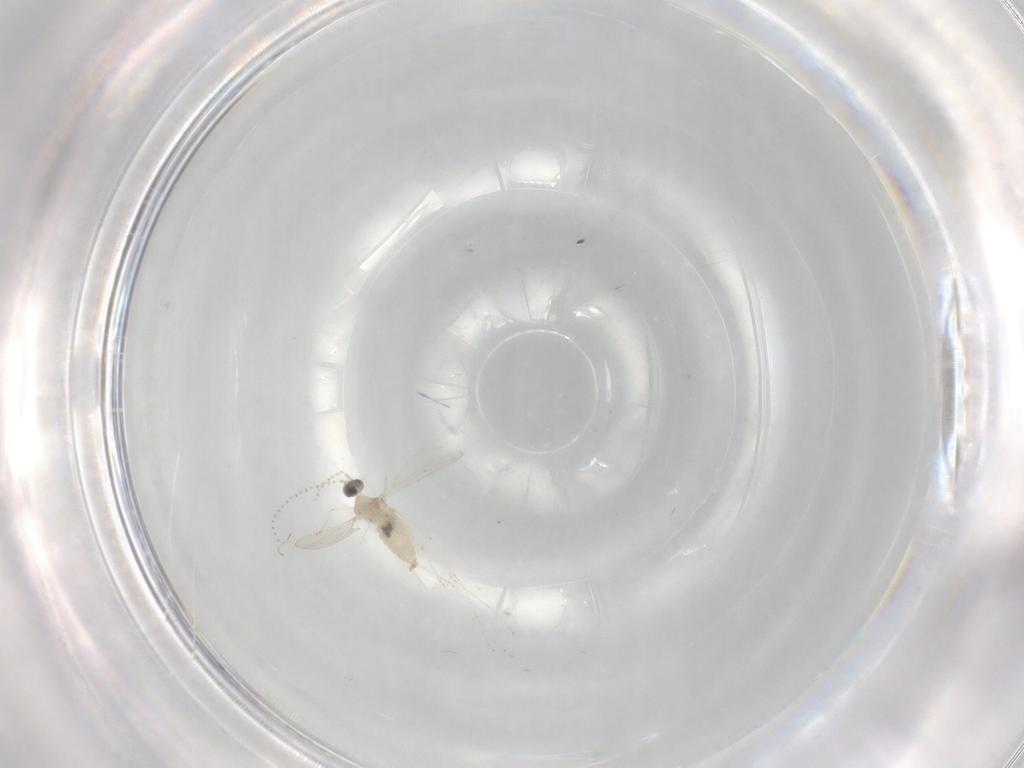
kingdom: Animalia
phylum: Arthropoda
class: Insecta
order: Diptera
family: Cecidomyiidae
